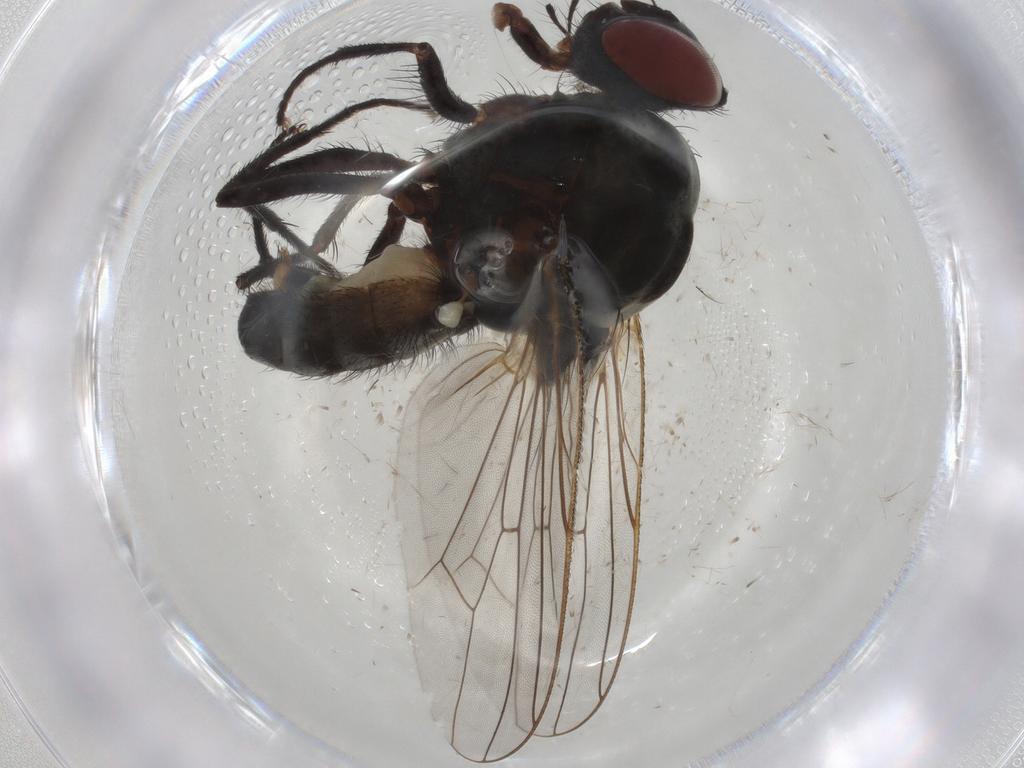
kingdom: Animalia
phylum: Arthropoda
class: Insecta
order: Diptera
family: Anthomyiidae
